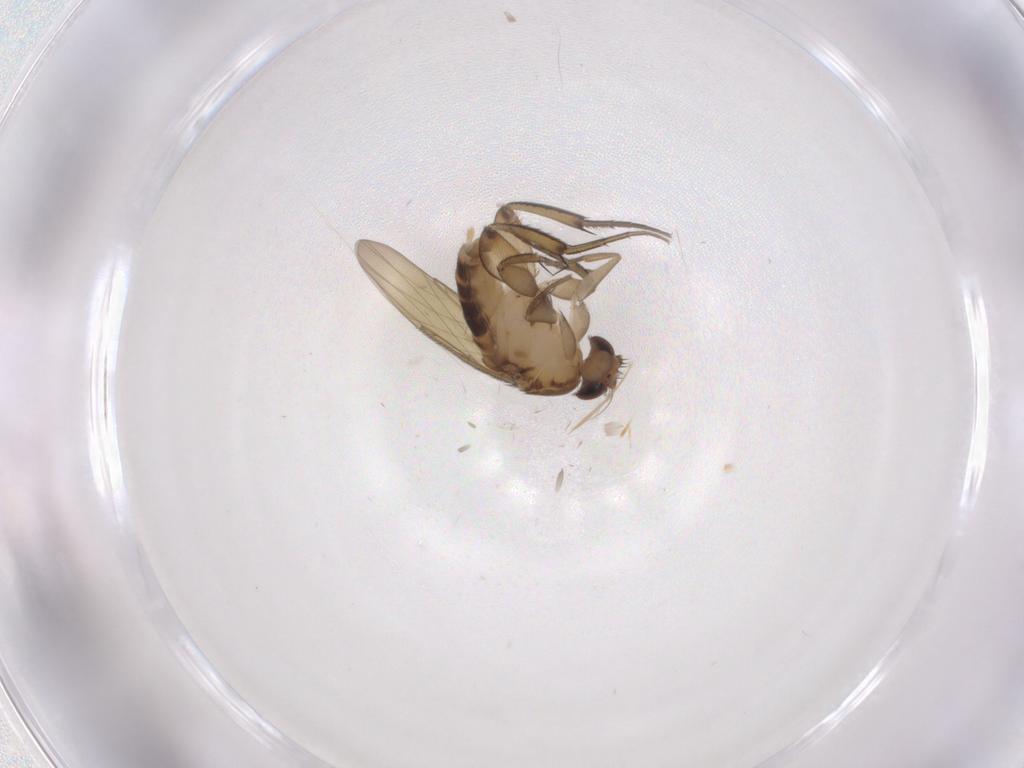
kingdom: Animalia
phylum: Arthropoda
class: Insecta
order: Diptera
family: Phoridae
